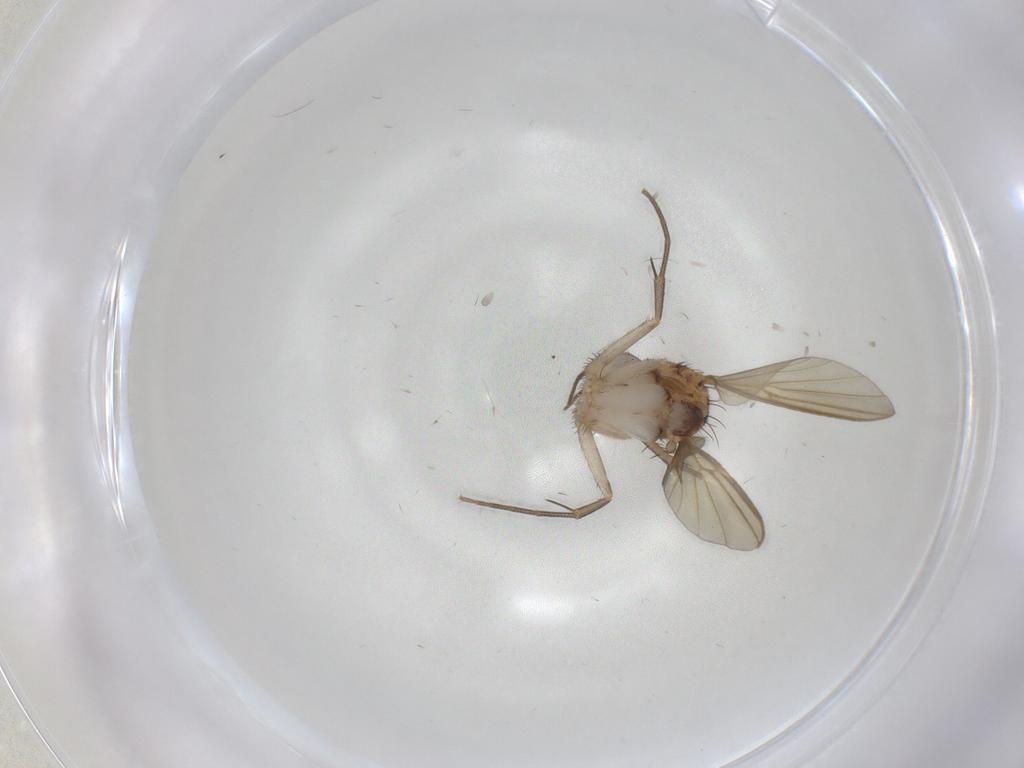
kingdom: Animalia
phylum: Arthropoda
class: Insecta
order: Diptera
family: Mycetophilidae
